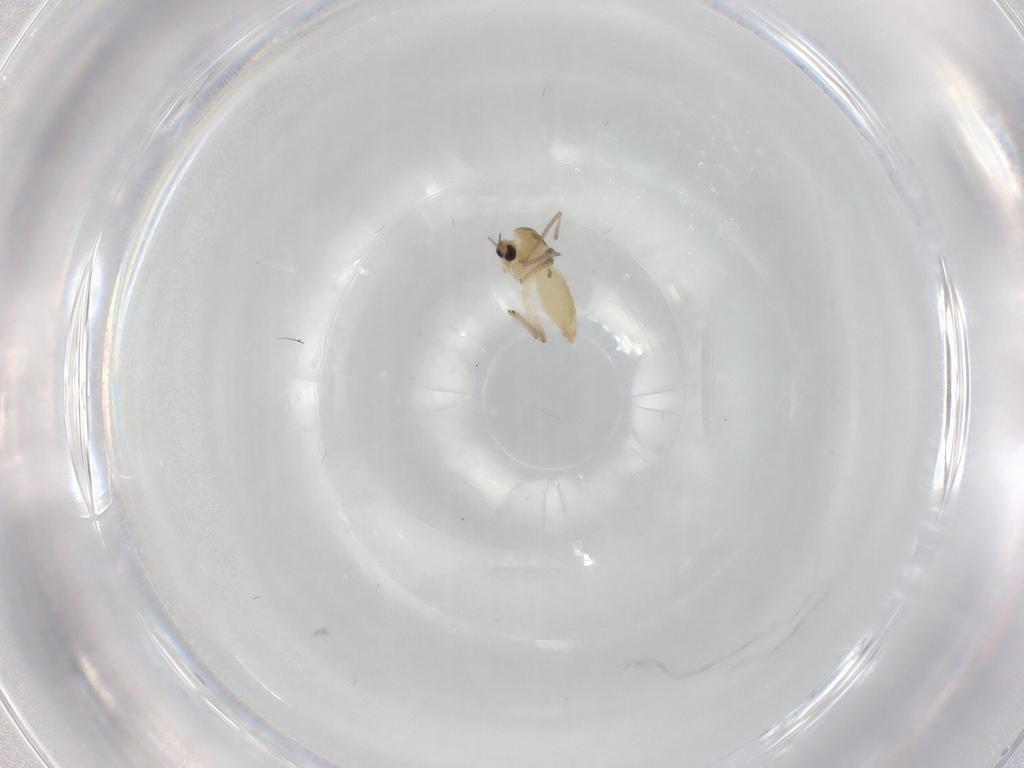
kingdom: Animalia
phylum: Arthropoda
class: Insecta
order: Diptera
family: Chironomidae
